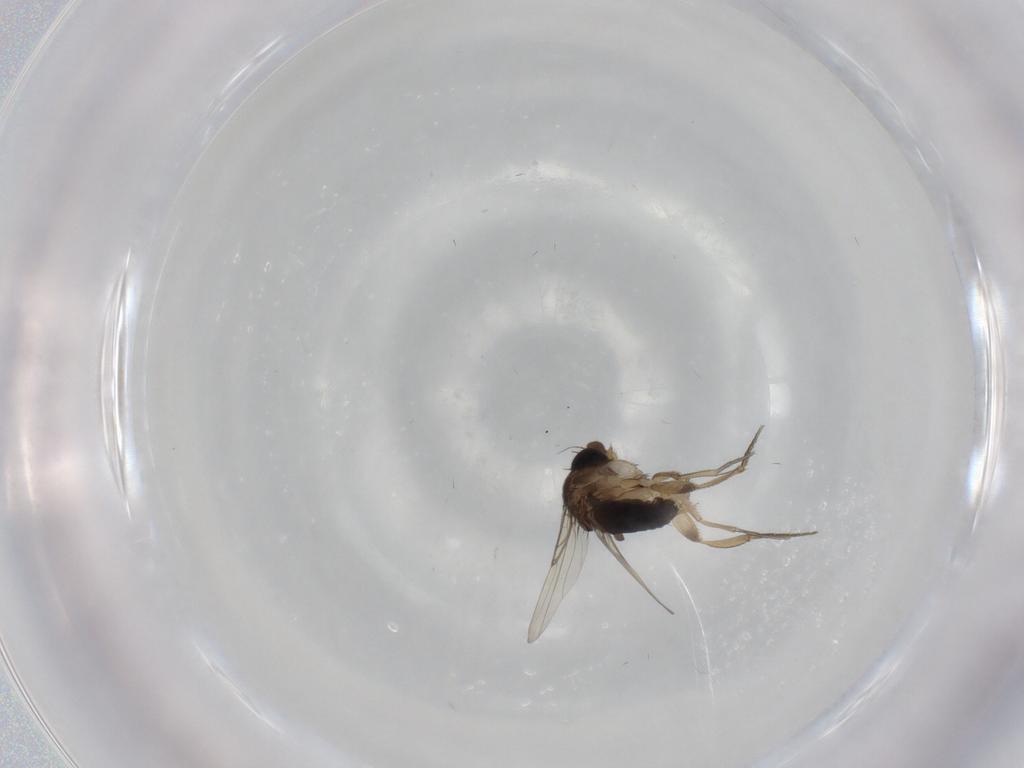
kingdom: Animalia
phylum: Arthropoda
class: Insecta
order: Diptera
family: Phoridae
